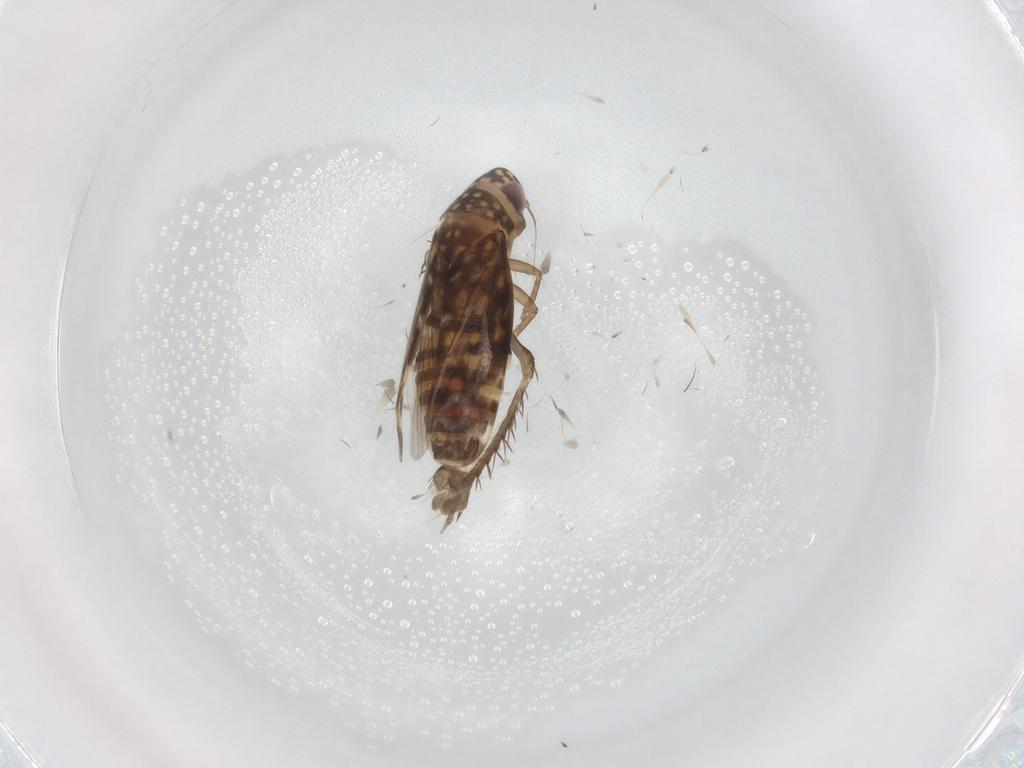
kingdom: Animalia
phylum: Arthropoda
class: Insecta
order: Hemiptera
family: Cicadellidae
